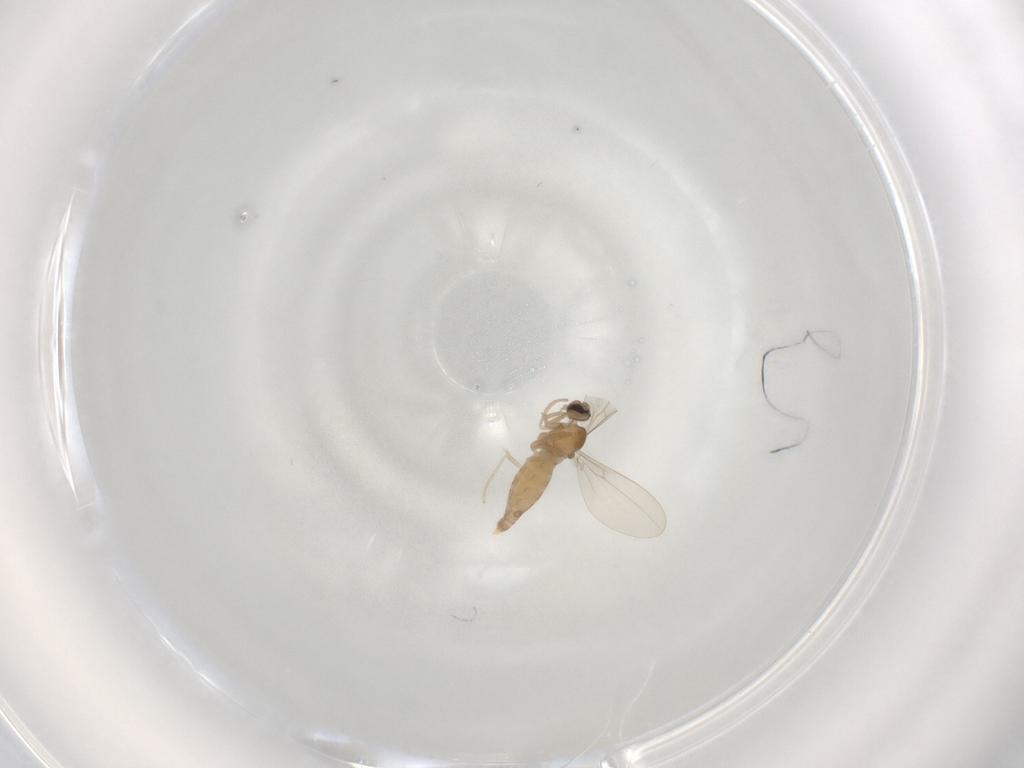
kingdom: Animalia
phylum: Arthropoda
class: Insecta
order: Diptera
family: Cecidomyiidae
